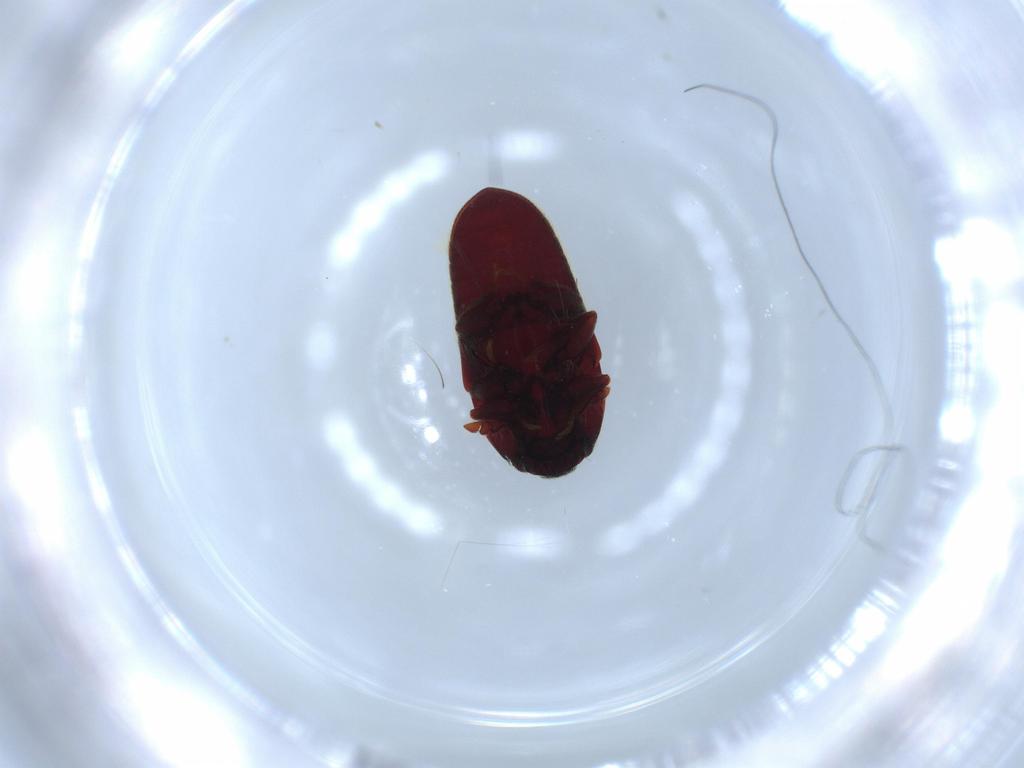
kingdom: Animalia
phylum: Arthropoda
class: Insecta
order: Coleoptera
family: Throscidae
